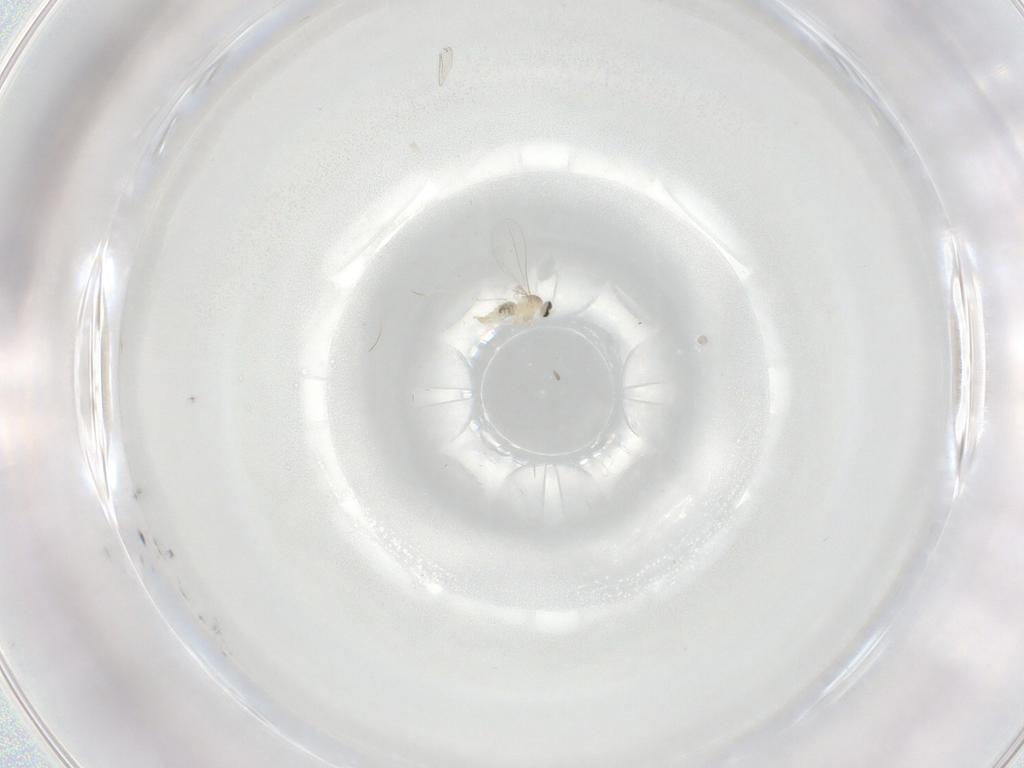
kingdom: Animalia
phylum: Arthropoda
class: Insecta
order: Diptera
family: Cecidomyiidae
